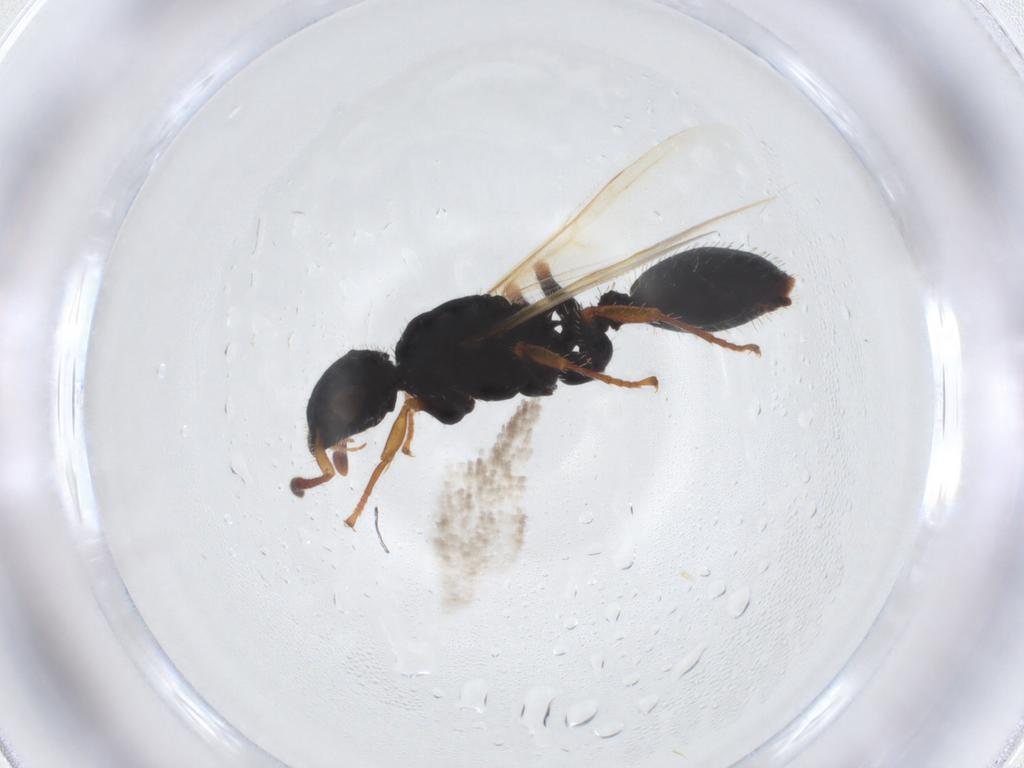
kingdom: Animalia
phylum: Arthropoda
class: Insecta
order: Hymenoptera
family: Formicidae
